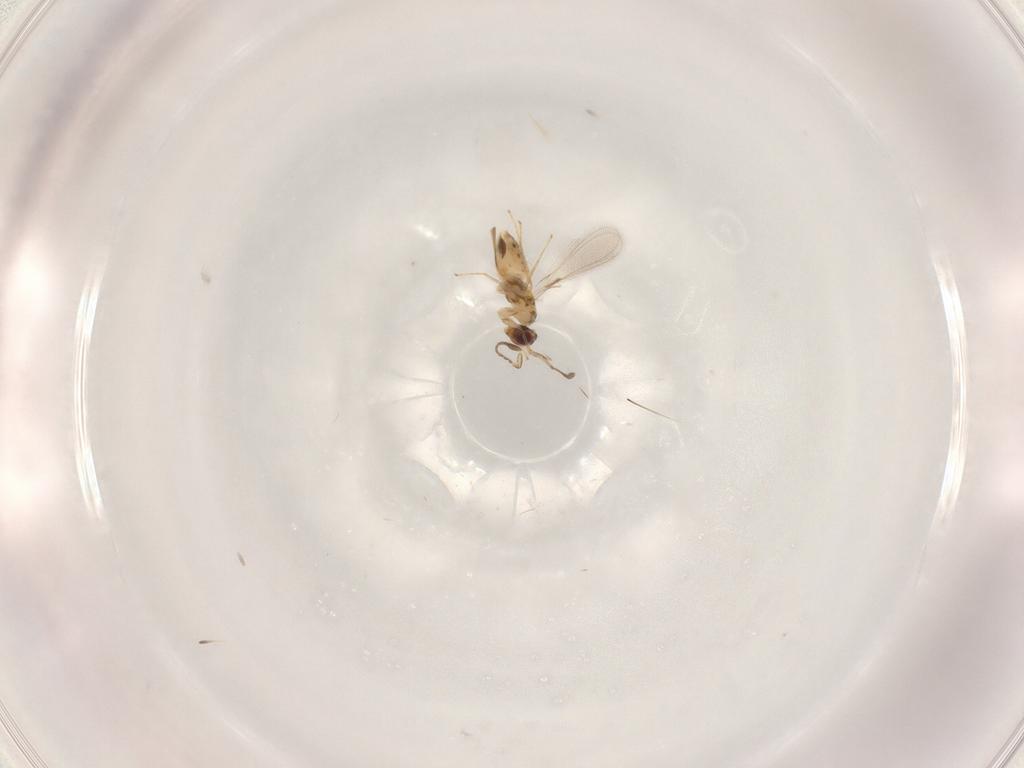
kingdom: Animalia
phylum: Arthropoda
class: Insecta
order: Hymenoptera
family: Mymaridae
